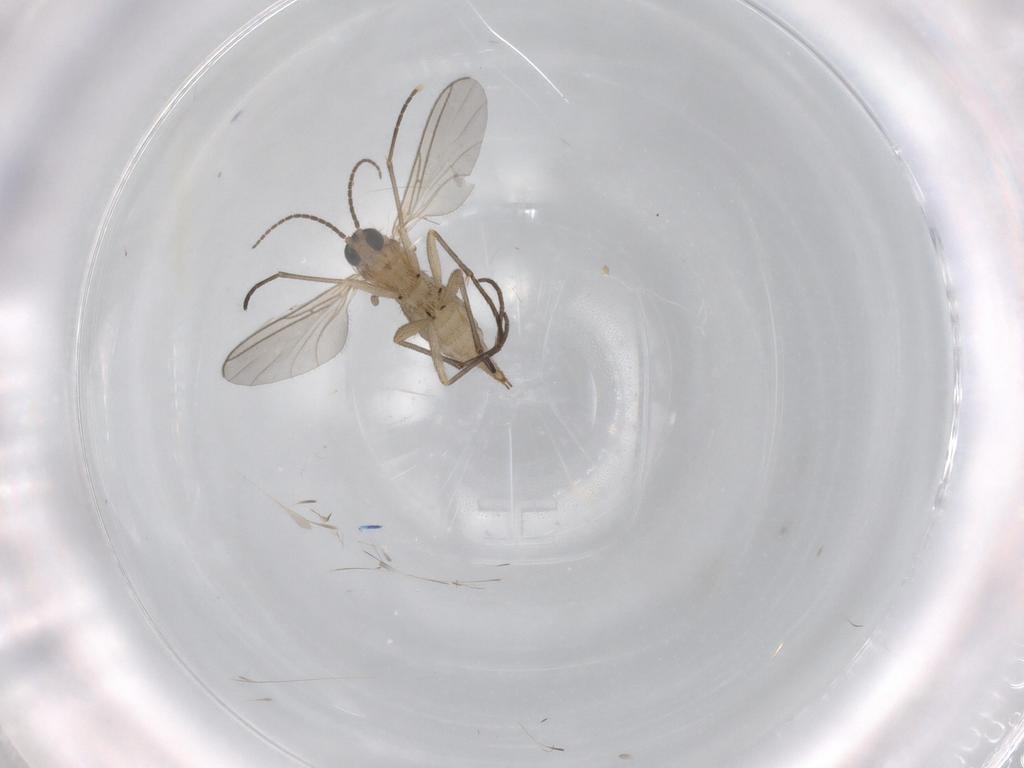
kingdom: Animalia
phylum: Arthropoda
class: Insecta
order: Diptera
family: Sciaridae
